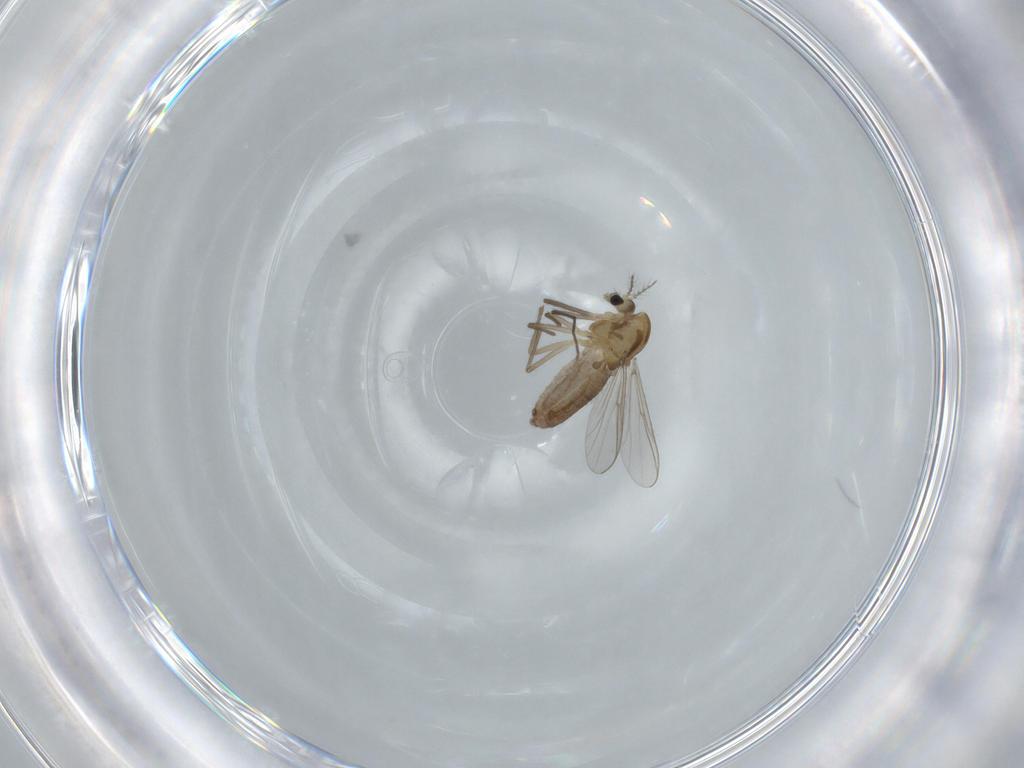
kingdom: Animalia
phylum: Arthropoda
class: Insecta
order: Diptera
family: Chironomidae
